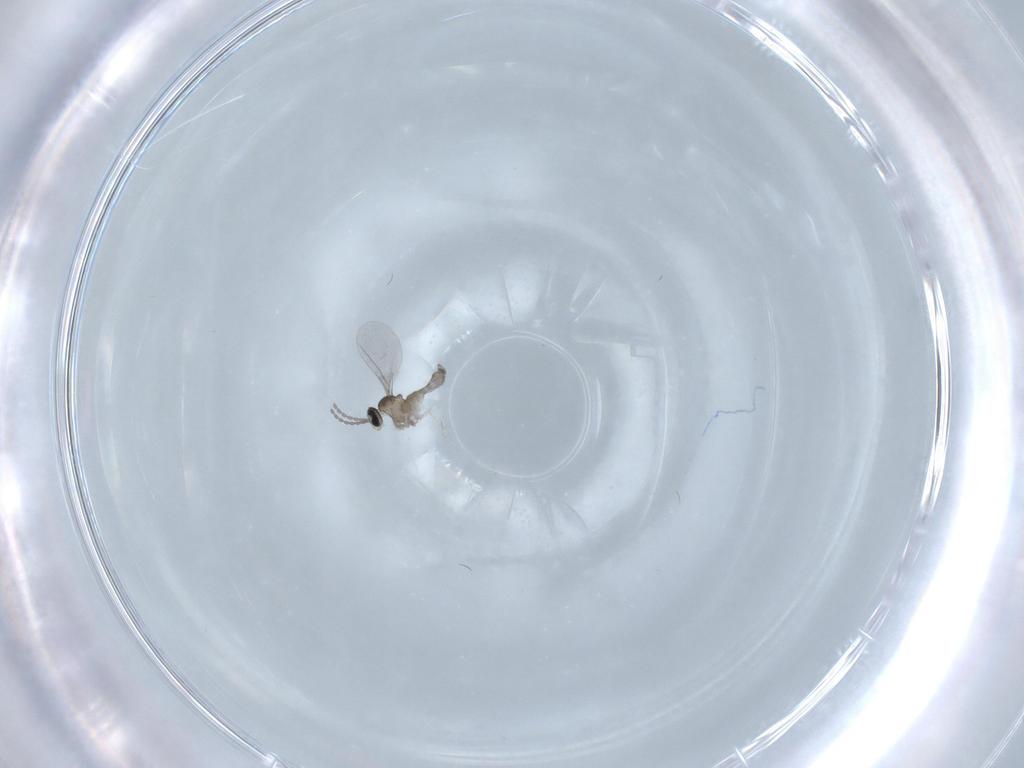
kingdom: Animalia
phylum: Arthropoda
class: Insecta
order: Diptera
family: Cecidomyiidae
